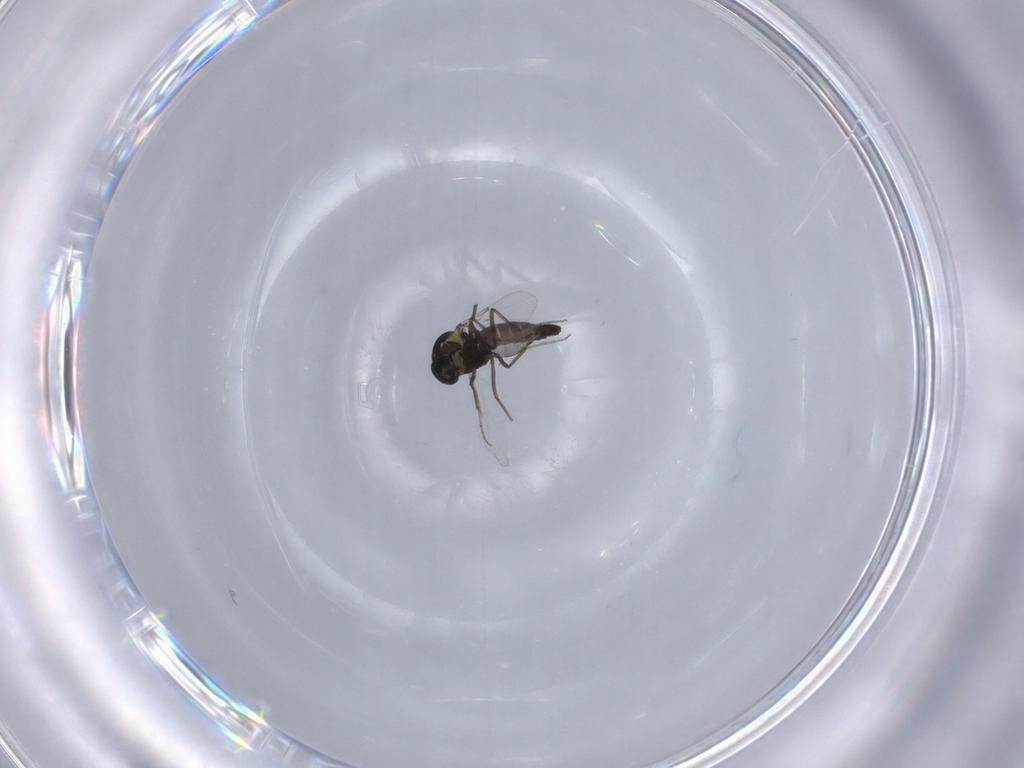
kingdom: Animalia
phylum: Arthropoda
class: Insecta
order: Diptera
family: Ceratopogonidae
